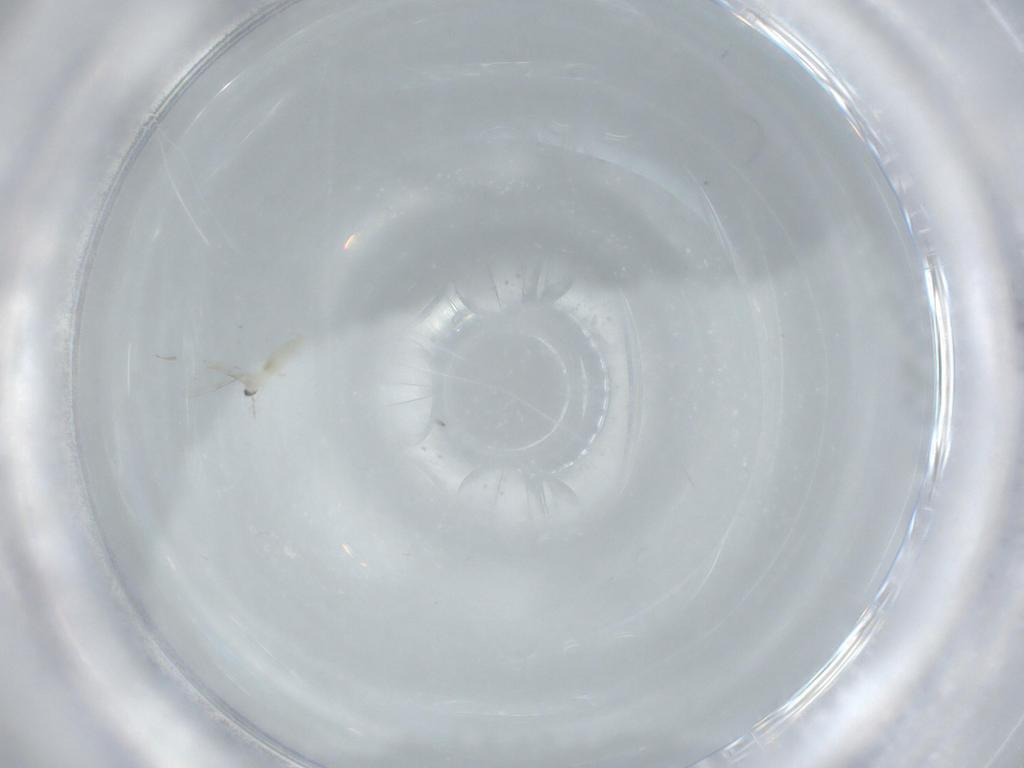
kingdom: Animalia
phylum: Arthropoda
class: Insecta
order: Diptera
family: Cecidomyiidae
